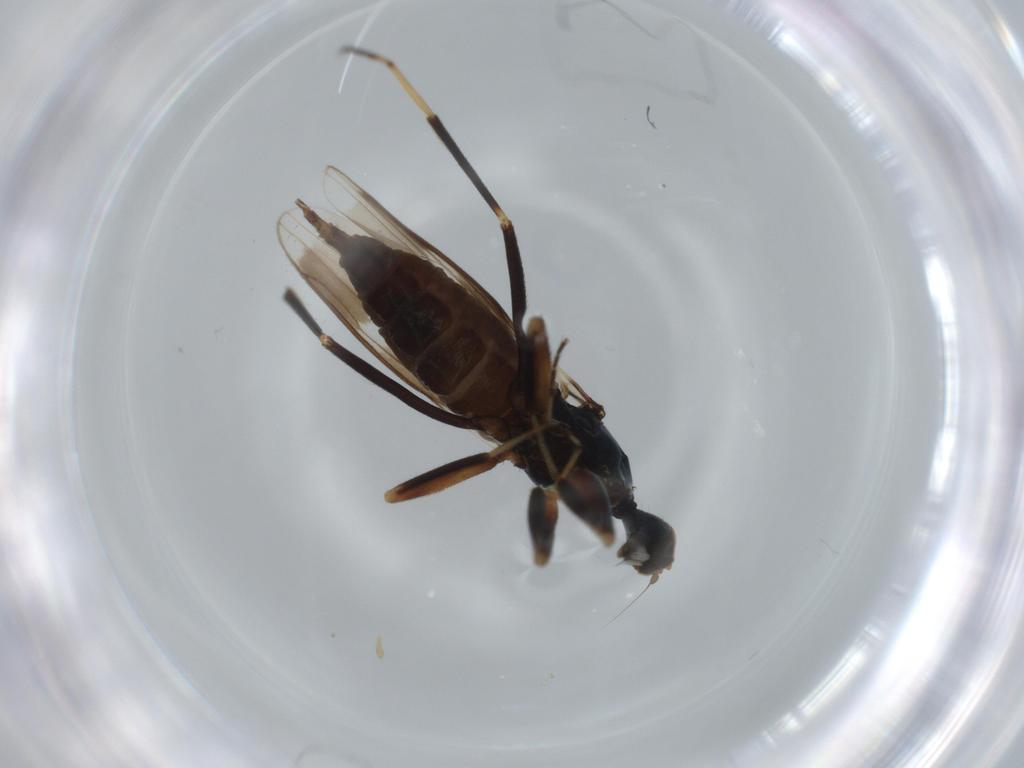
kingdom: Animalia
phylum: Arthropoda
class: Insecta
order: Diptera
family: Hybotidae
